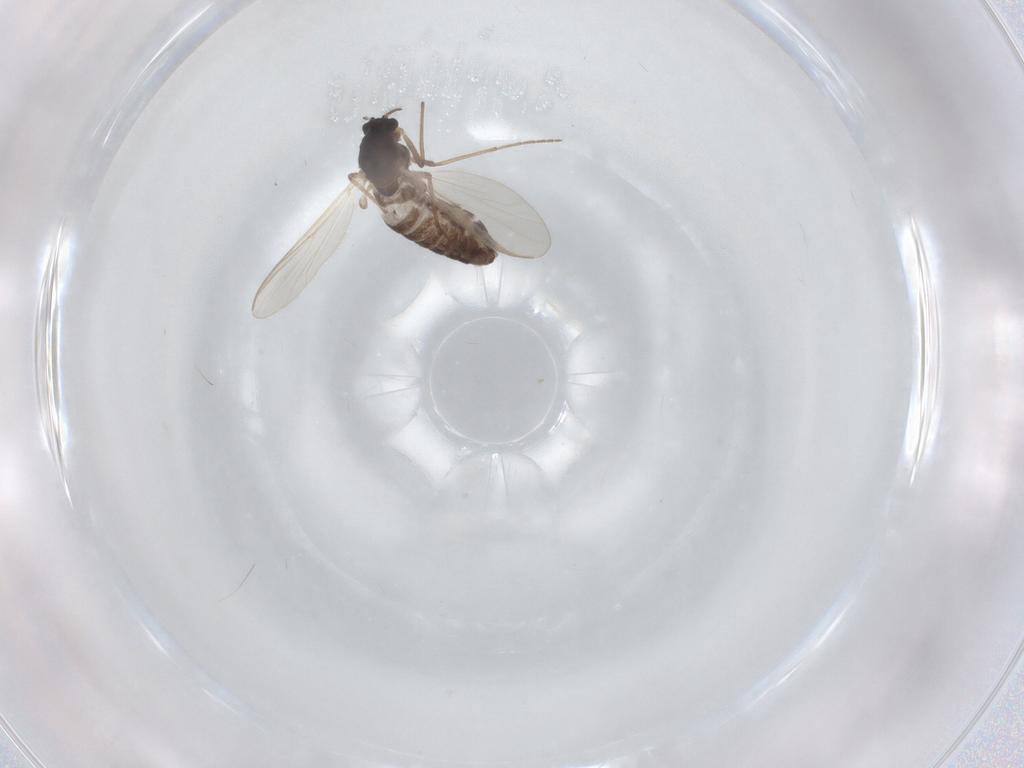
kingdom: Animalia
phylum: Arthropoda
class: Insecta
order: Diptera
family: Chironomidae
